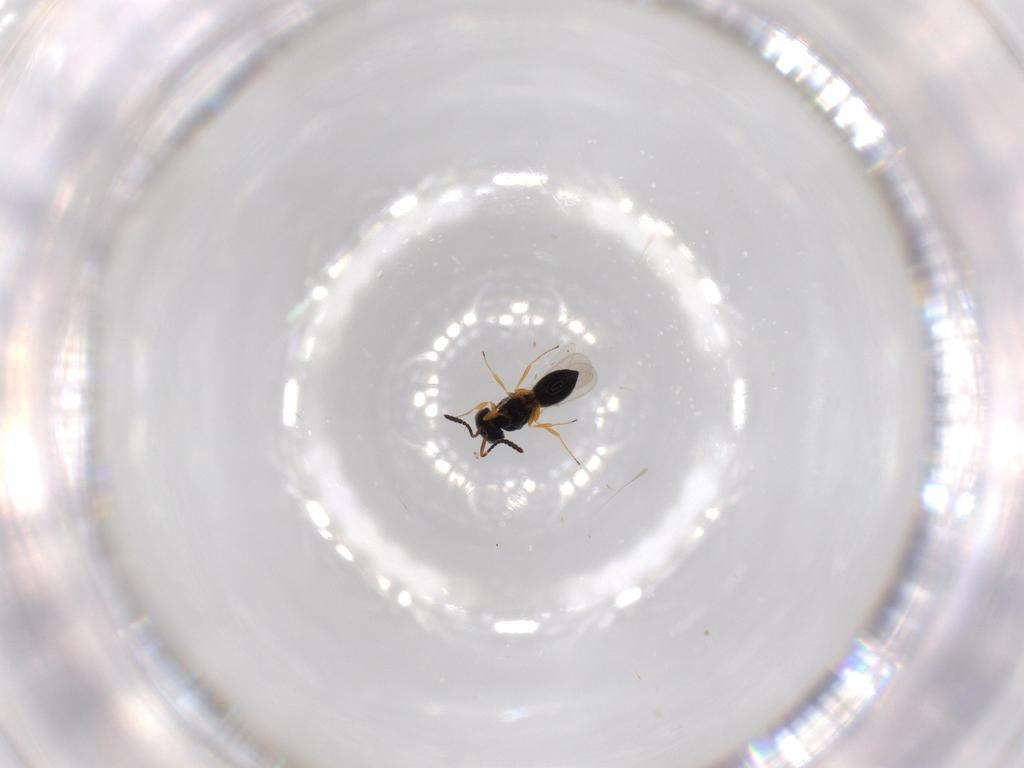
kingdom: Animalia
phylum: Arthropoda
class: Insecta
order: Hymenoptera
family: Scelionidae
